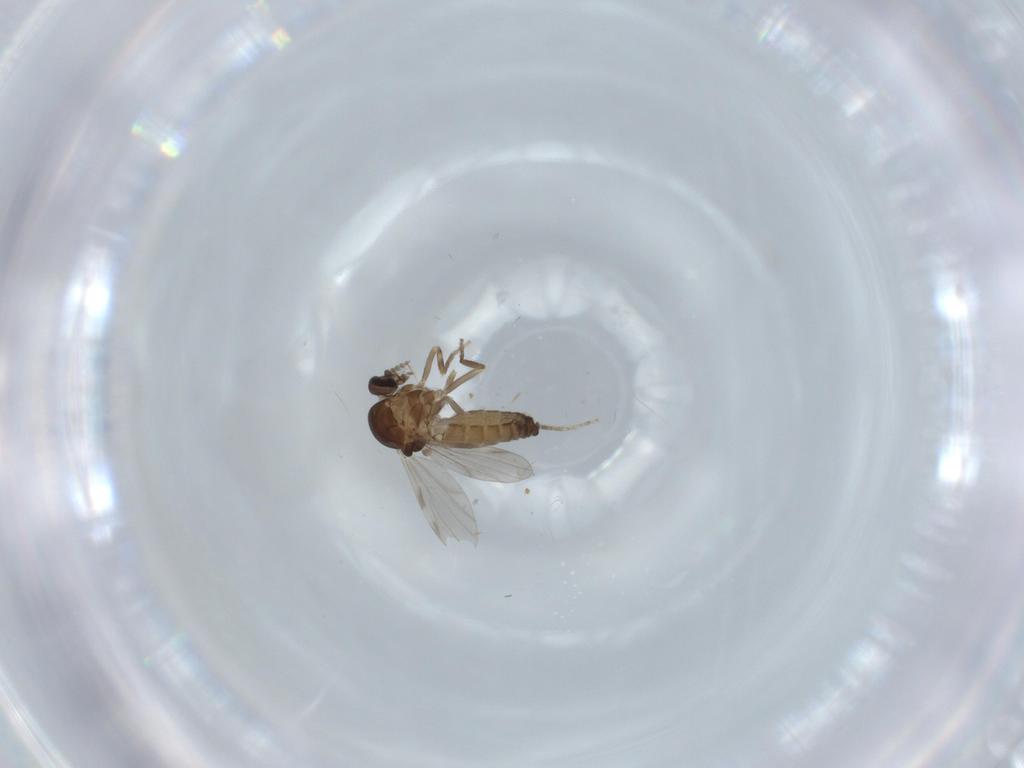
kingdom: Animalia
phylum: Arthropoda
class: Insecta
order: Diptera
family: Ceratopogonidae
